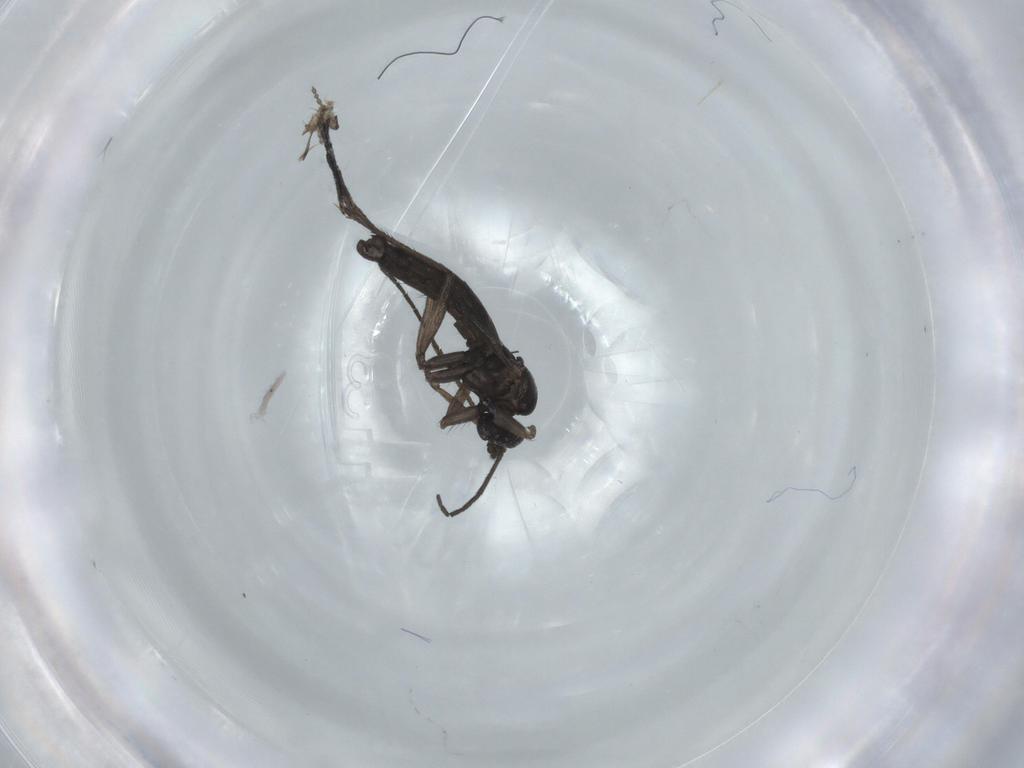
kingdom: Animalia
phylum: Arthropoda
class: Insecta
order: Diptera
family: Sciaridae
